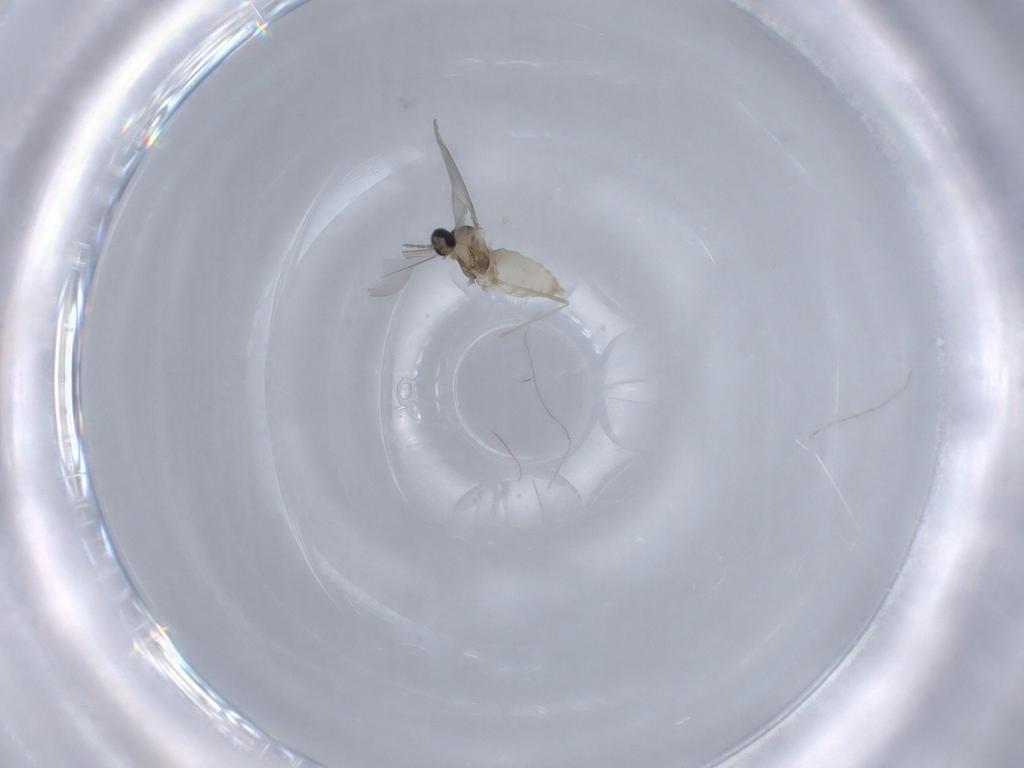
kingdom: Animalia
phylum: Arthropoda
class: Insecta
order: Diptera
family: Cecidomyiidae
